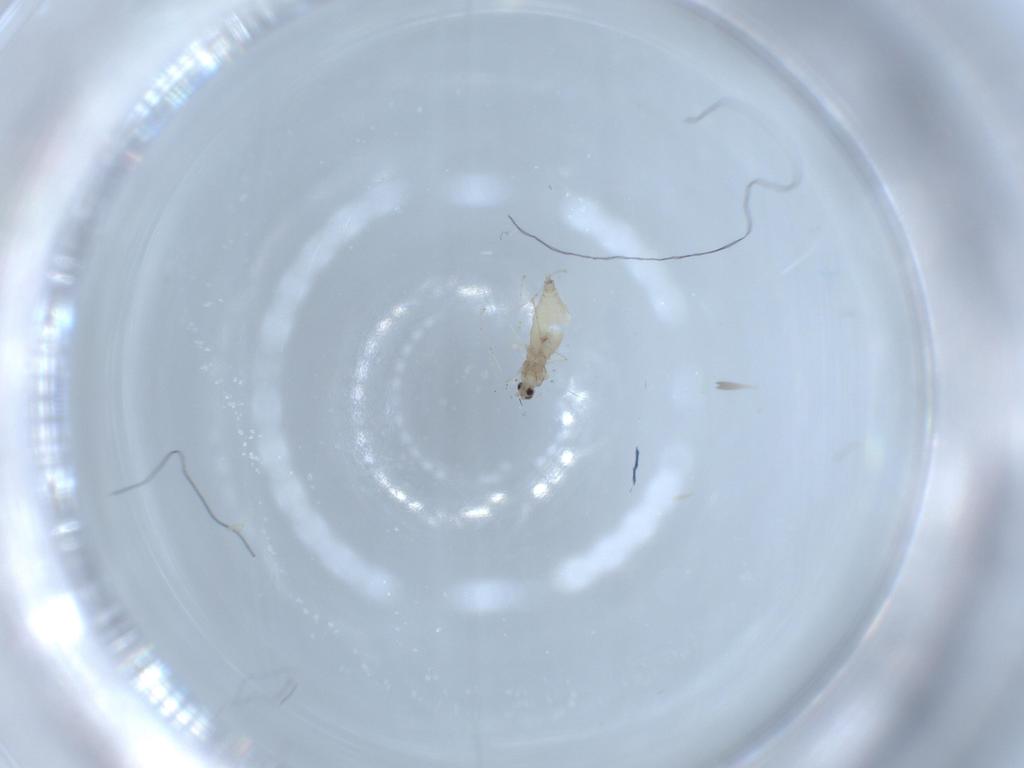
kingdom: Animalia
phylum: Arthropoda
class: Insecta
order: Diptera
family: Cecidomyiidae
